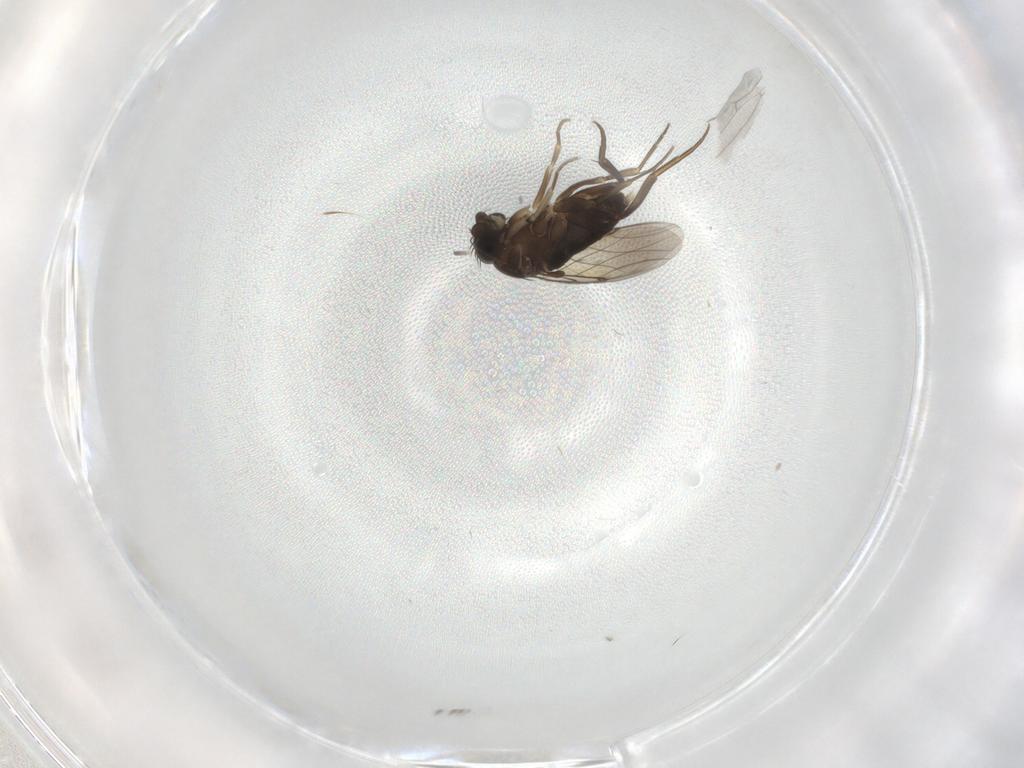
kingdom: Animalia
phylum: Arthropoda
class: Insecta
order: Diptera
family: Phoridae
